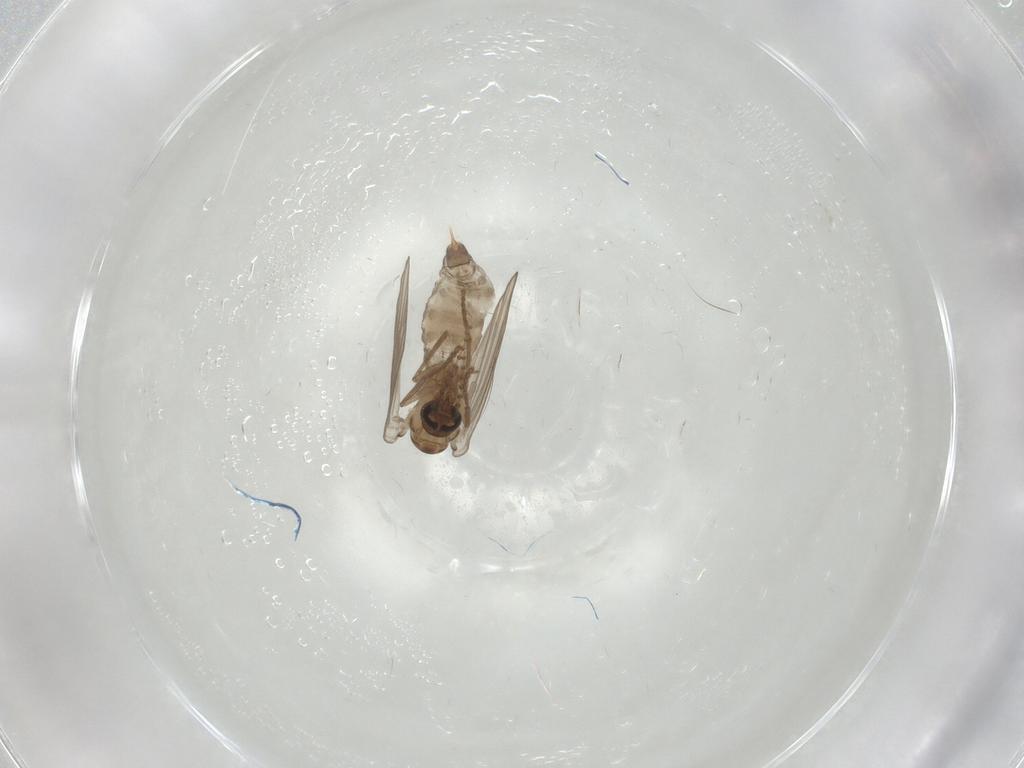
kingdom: Animalia
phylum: Arthropoda
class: Insecta
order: Diptera
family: Psychodidae
